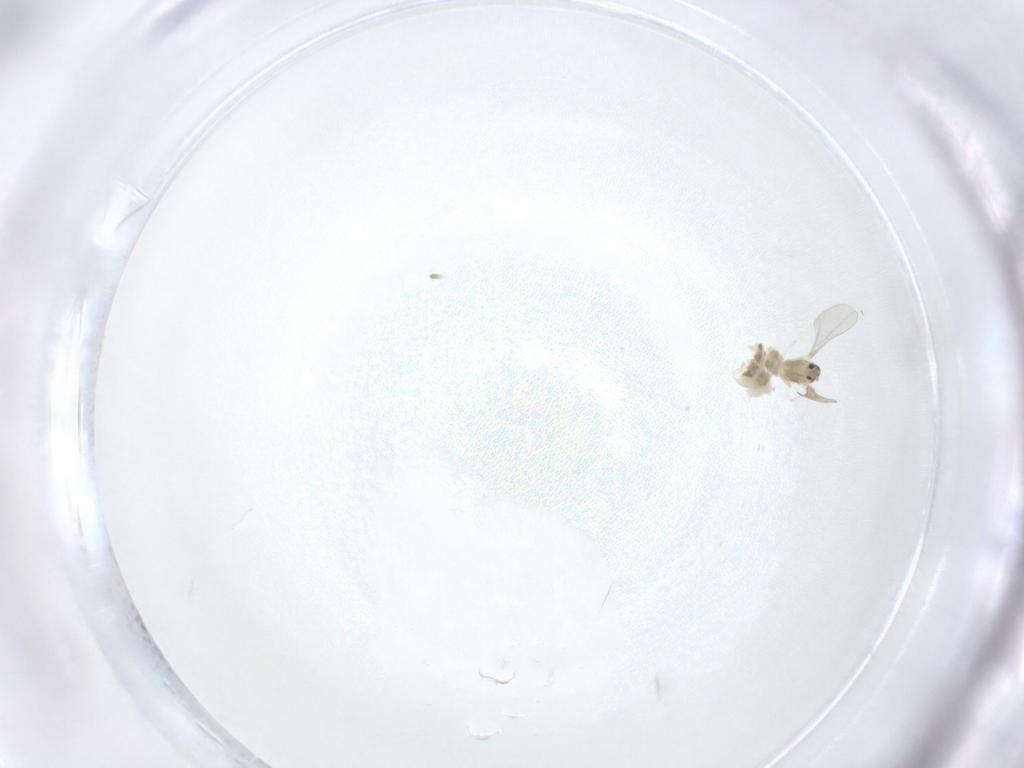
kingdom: Animalia
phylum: Arthropoda
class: Insecta
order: Diptera
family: Cecidomyiidae
